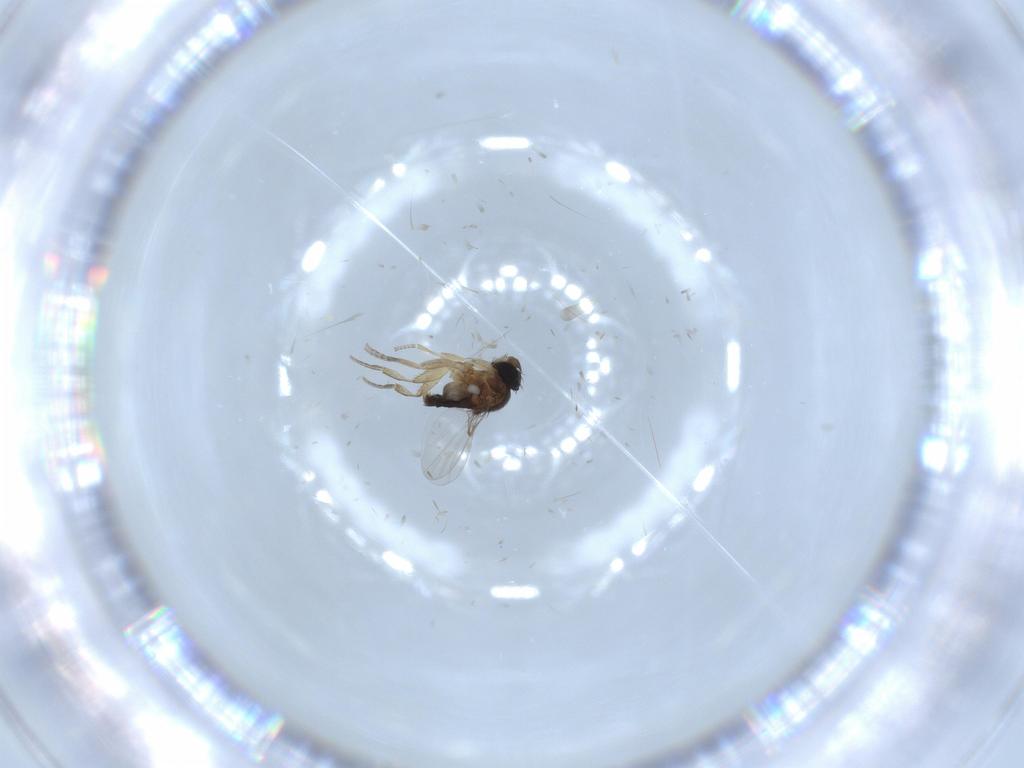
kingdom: Animalia
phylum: Arthropoda
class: Insecta
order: Diptera
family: Phoridae
